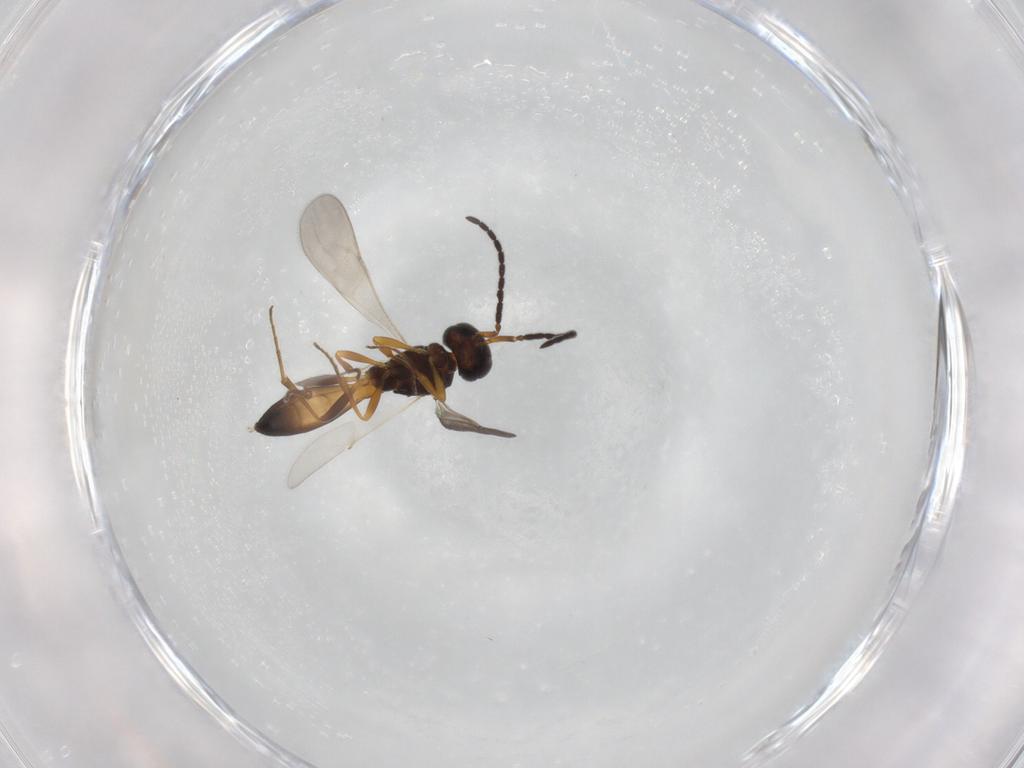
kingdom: Animalia
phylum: Arthropoda
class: Insecta
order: Hymenoptera
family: Scelionidae
